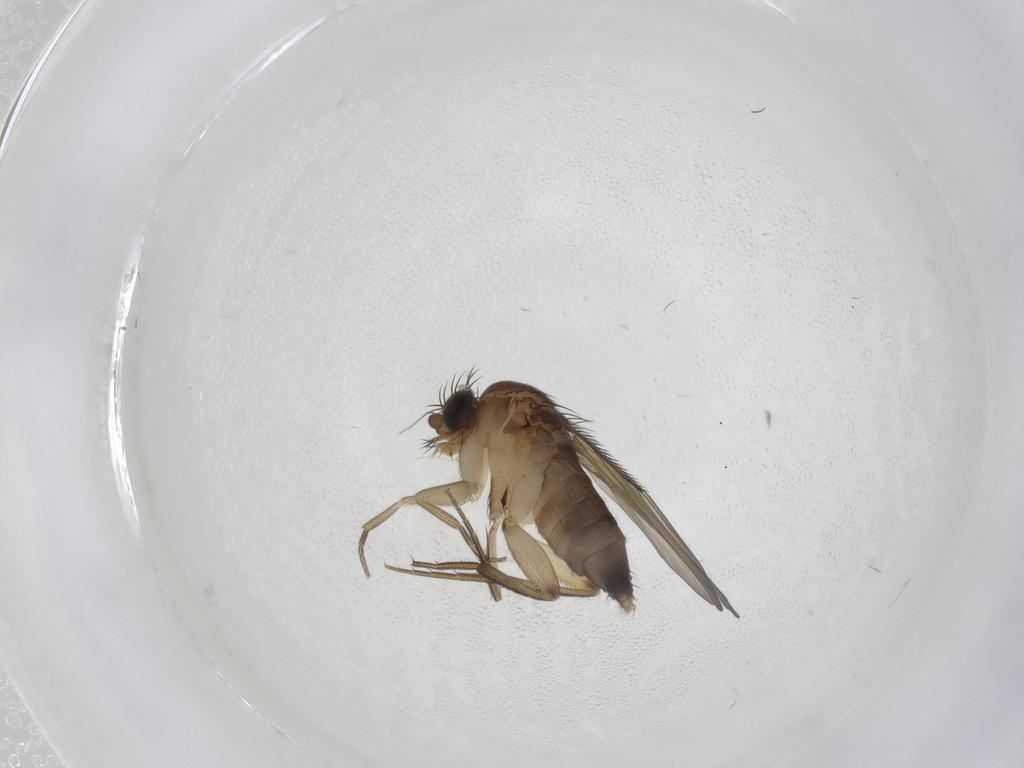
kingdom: Animalia
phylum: Arthropoda
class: Insecta
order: Diptera
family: Phoridae
